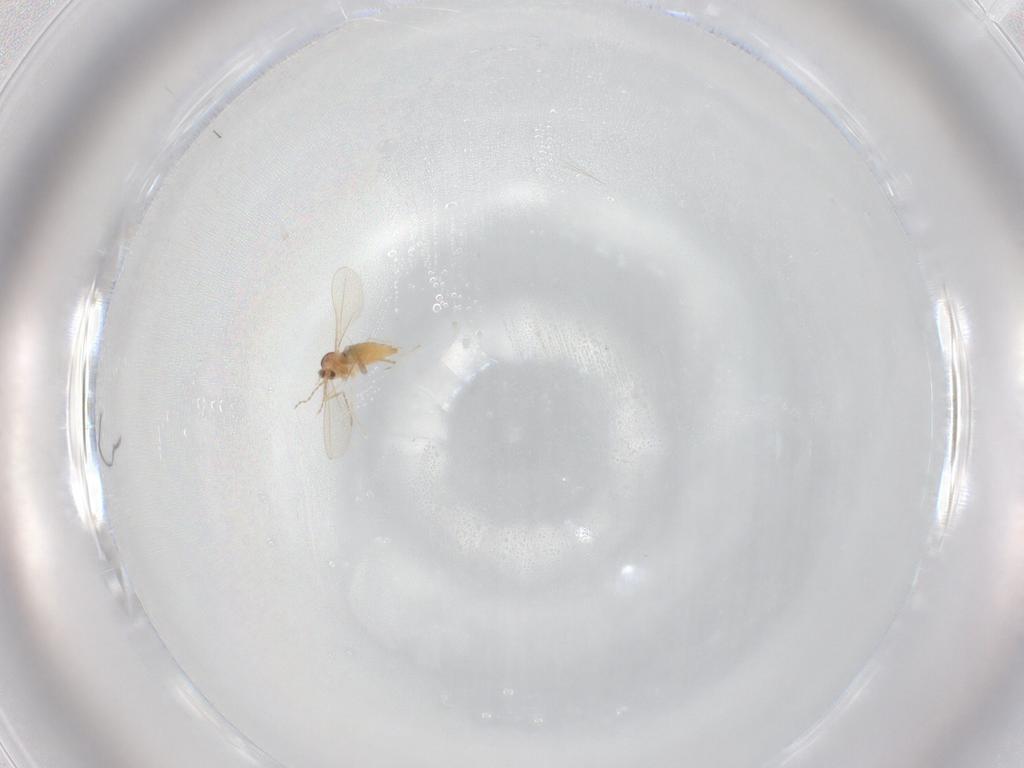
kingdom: Animalia
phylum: Arthropoda
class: Insecta
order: Diptera
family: Cecidomyiidae
